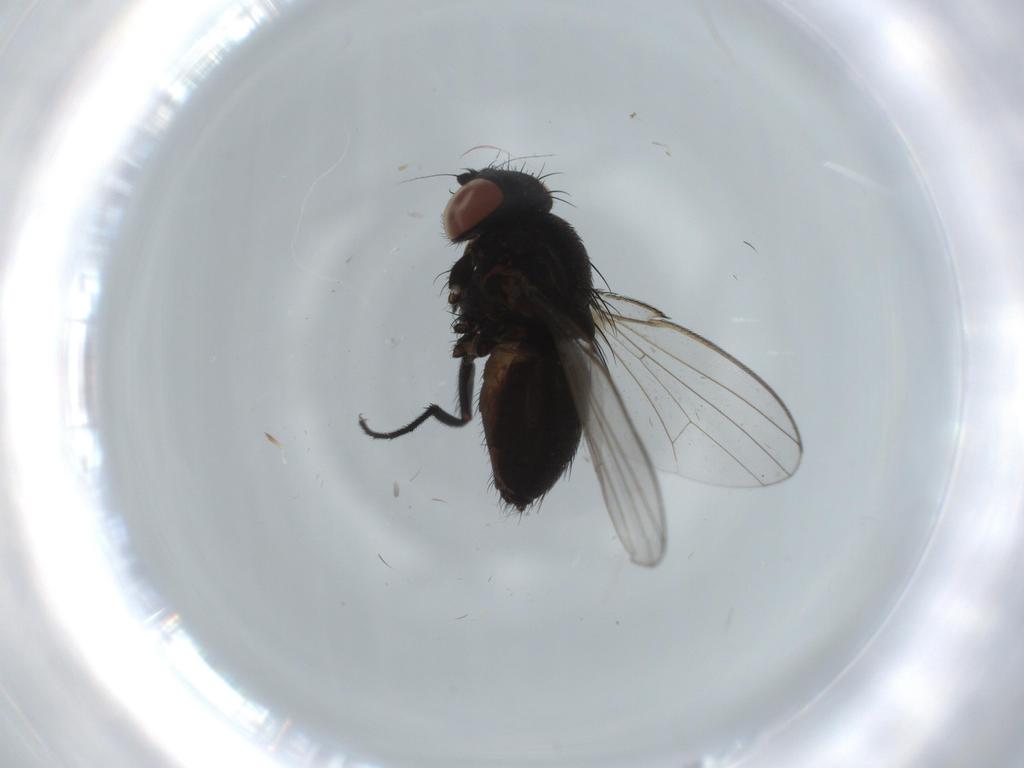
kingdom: Animalia
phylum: Arthropoda
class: Insecta
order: Diptera
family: Milichiidae
